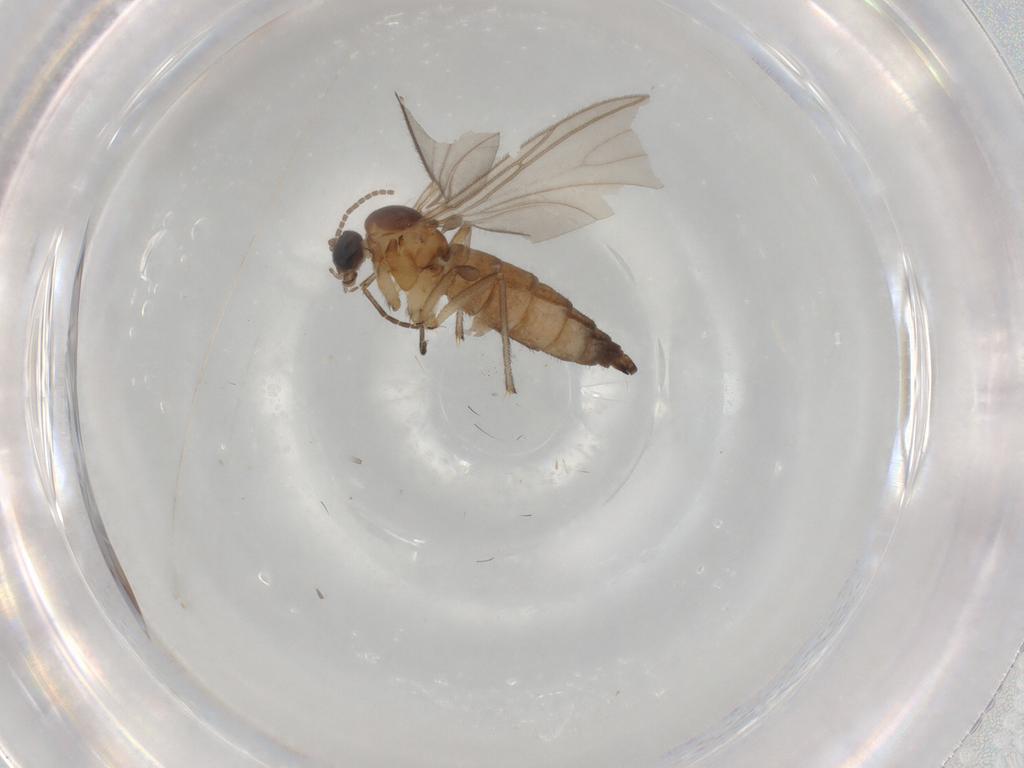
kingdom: Animalia
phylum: Arthropoda
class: Insecta
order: Diptera
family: Sciaridae
